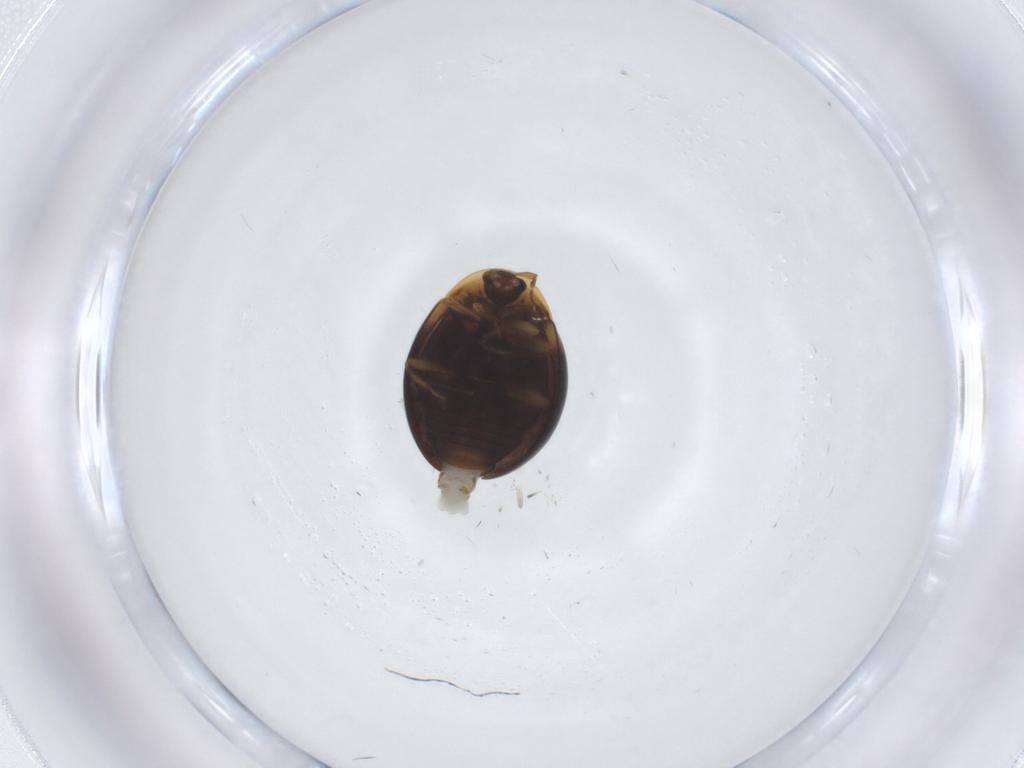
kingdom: Animalia
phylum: Arthropoda
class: Insecta
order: Coleoptera
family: Corylophidae
